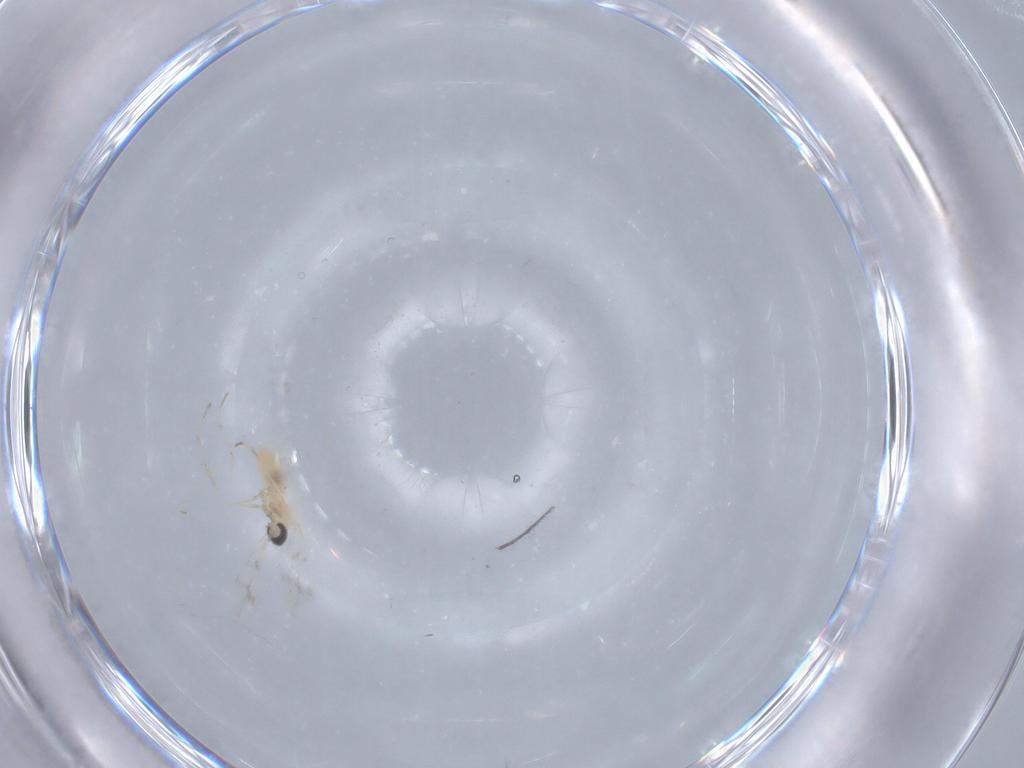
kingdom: Animalia
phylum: Arthropoda
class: Insecta
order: Diptera
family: Cecidomyiidae
